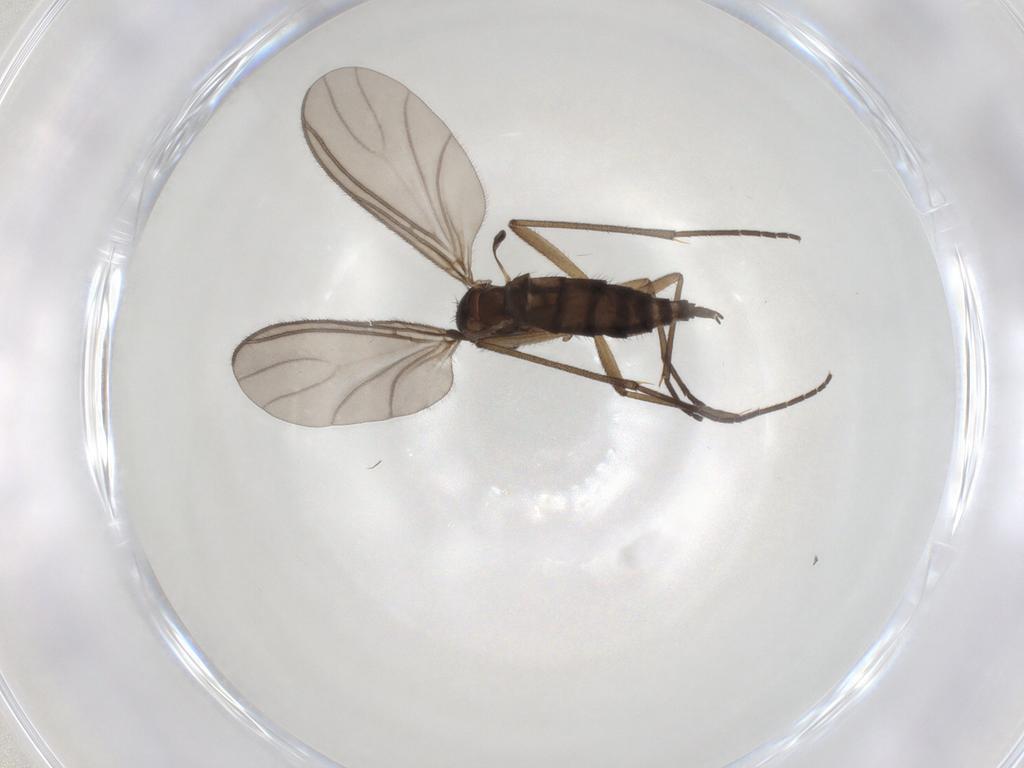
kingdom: Animalia
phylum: Arthropoda
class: Insecta
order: Diptera
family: Sciaridae
